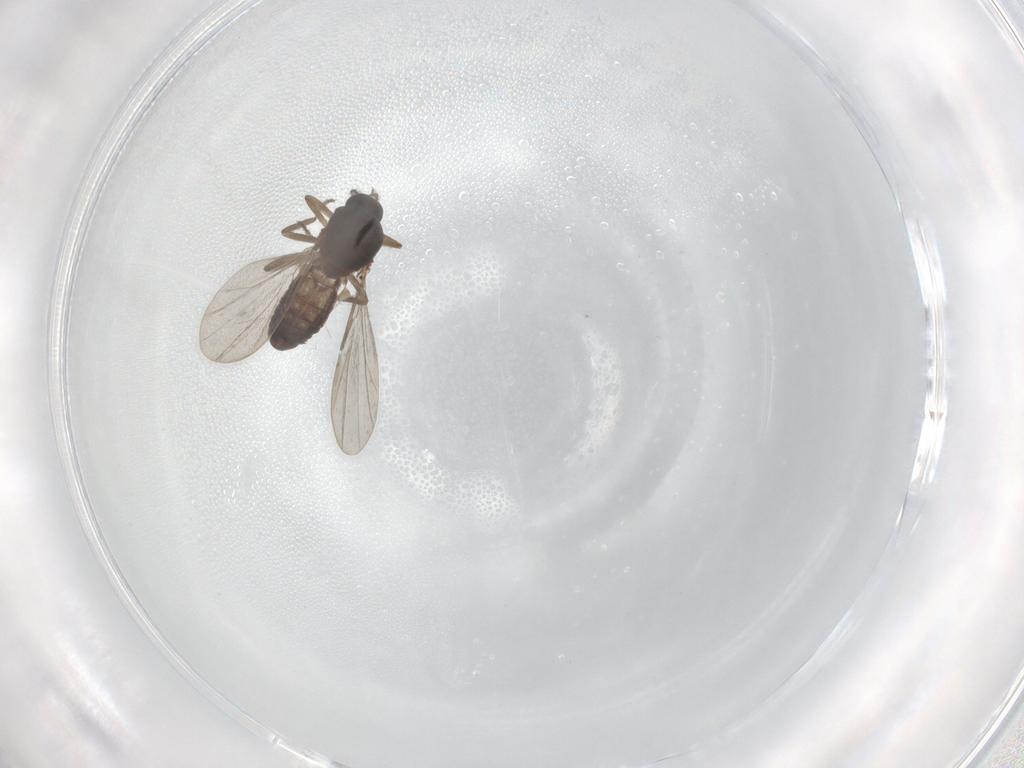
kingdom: Animalia
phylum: Arthropoda
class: Insecta
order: Diptera
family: Ceratopogonidae
